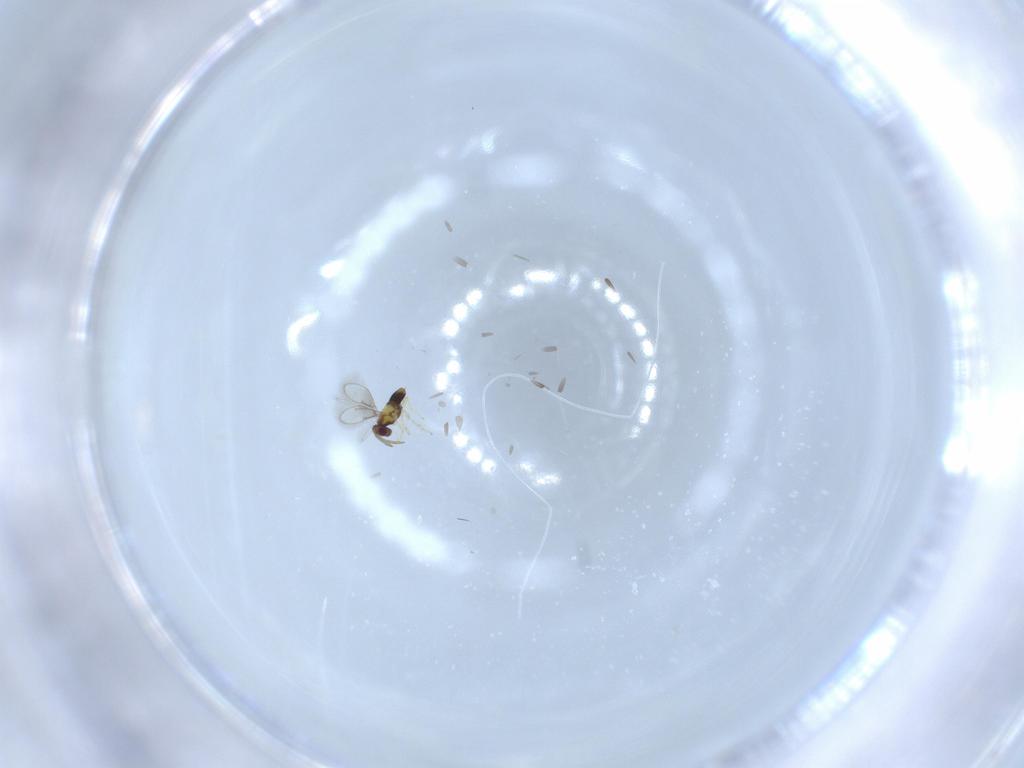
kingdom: Animalia
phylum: Arthropoda
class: Insecta
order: Hymenoptera
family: Aphelinidae
